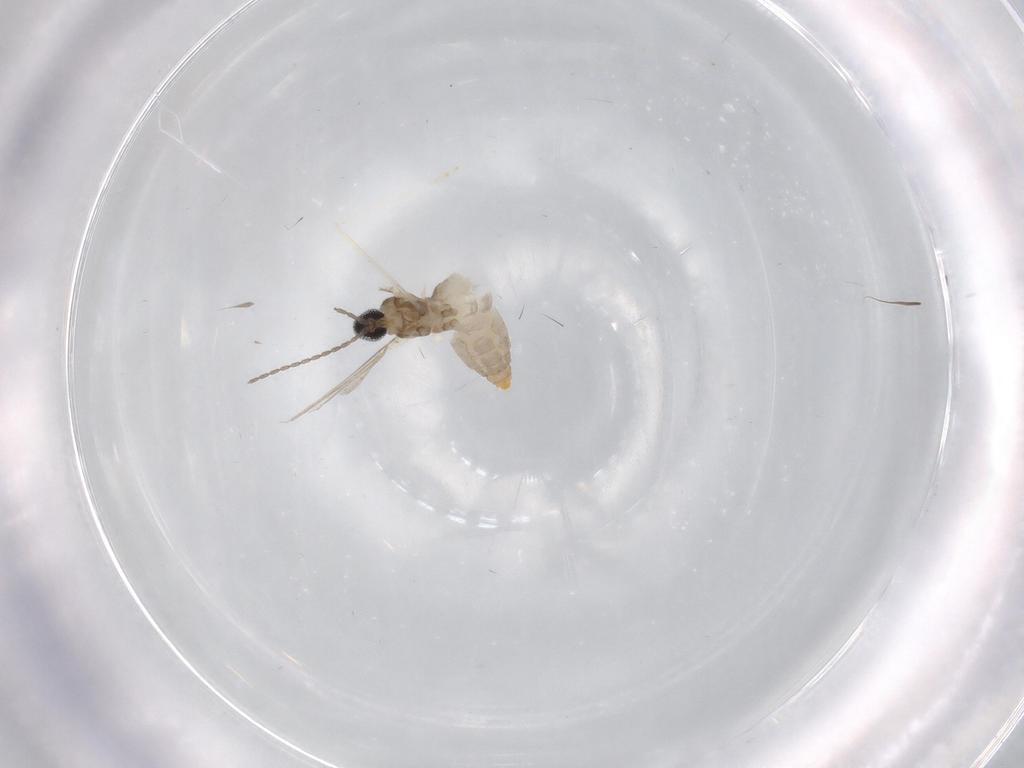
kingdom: Animalia
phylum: Arthropoda
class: Insecta
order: Diptera
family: Cecidomyiidae
